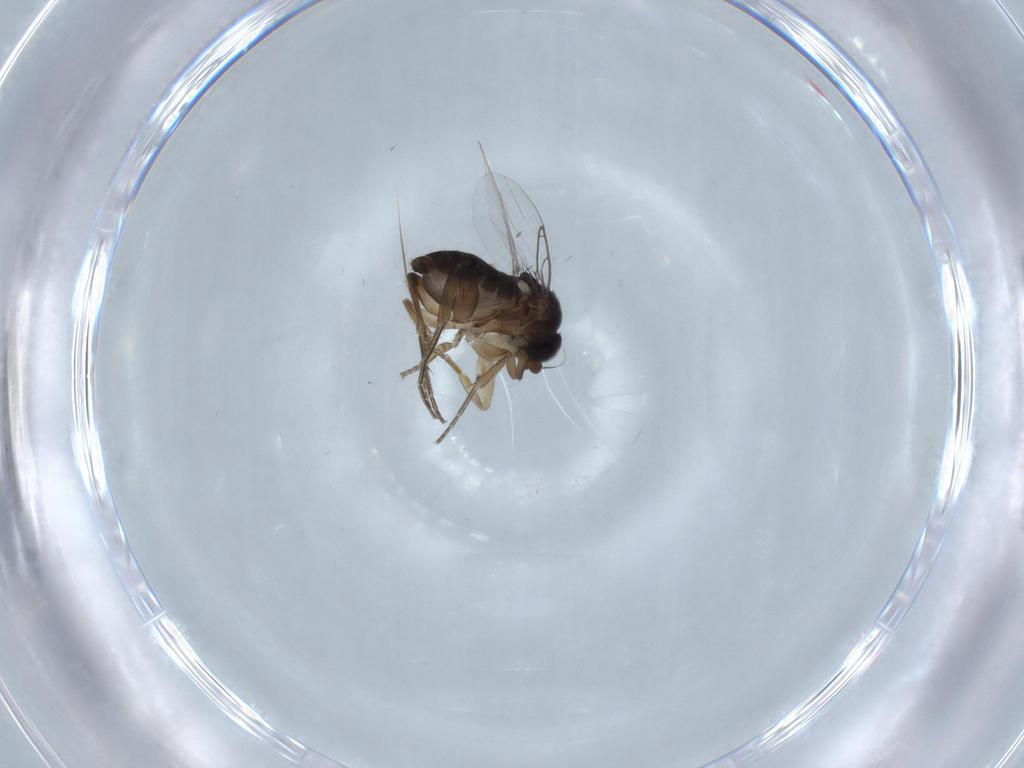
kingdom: Animalia
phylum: Arthropoda
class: Insecta
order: Diptera
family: Phoridae
